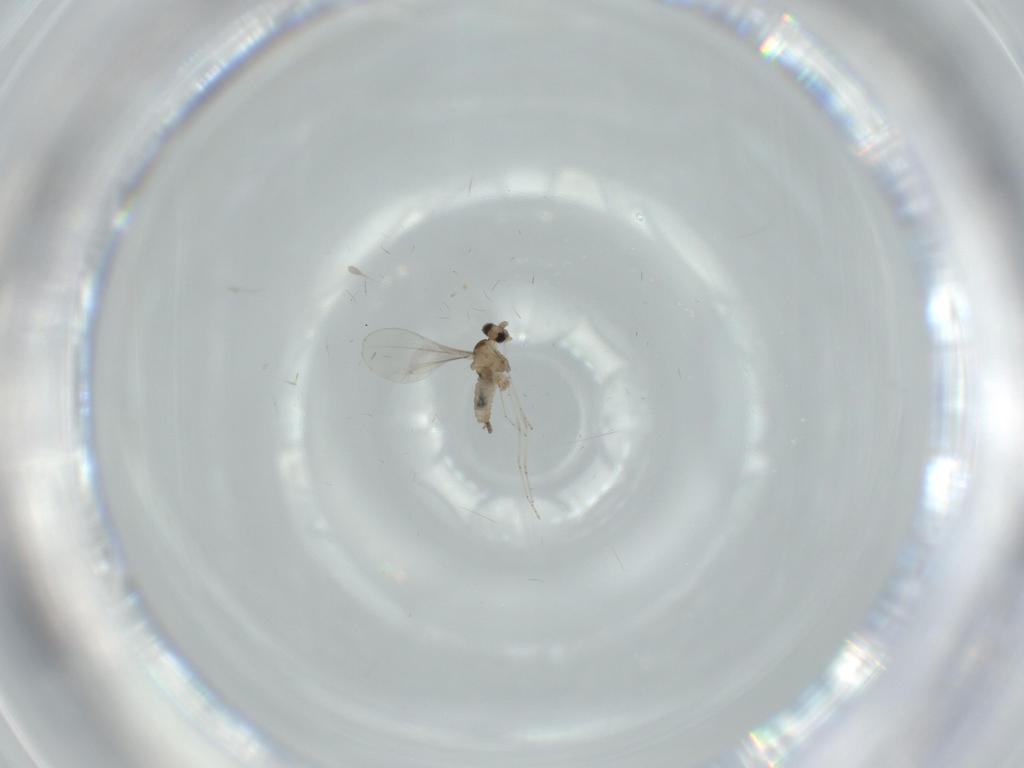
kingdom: Animalia
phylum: Arthropoda
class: Insecta
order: Diptera
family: Cecidomyiidae
